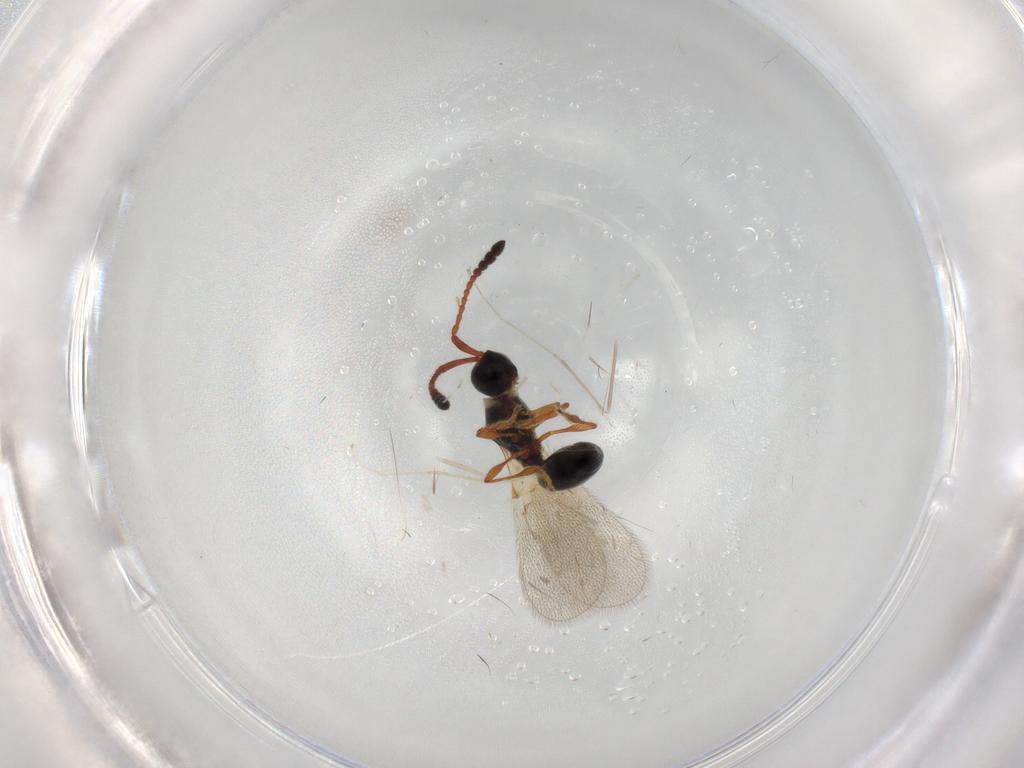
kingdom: Animalia
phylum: Arthropoda
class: Insecta
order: Hymenoptera
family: Diapriidae
